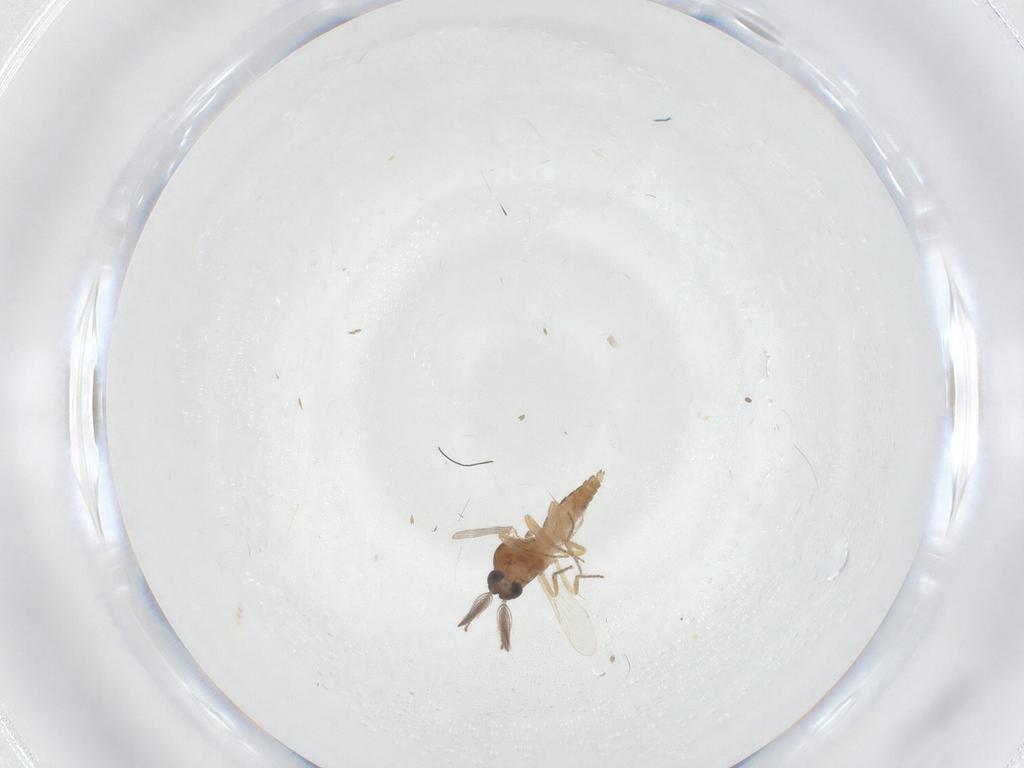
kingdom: Animalia
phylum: Arthropoda
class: Insecta
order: Diptera
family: Ceratopogonidae
